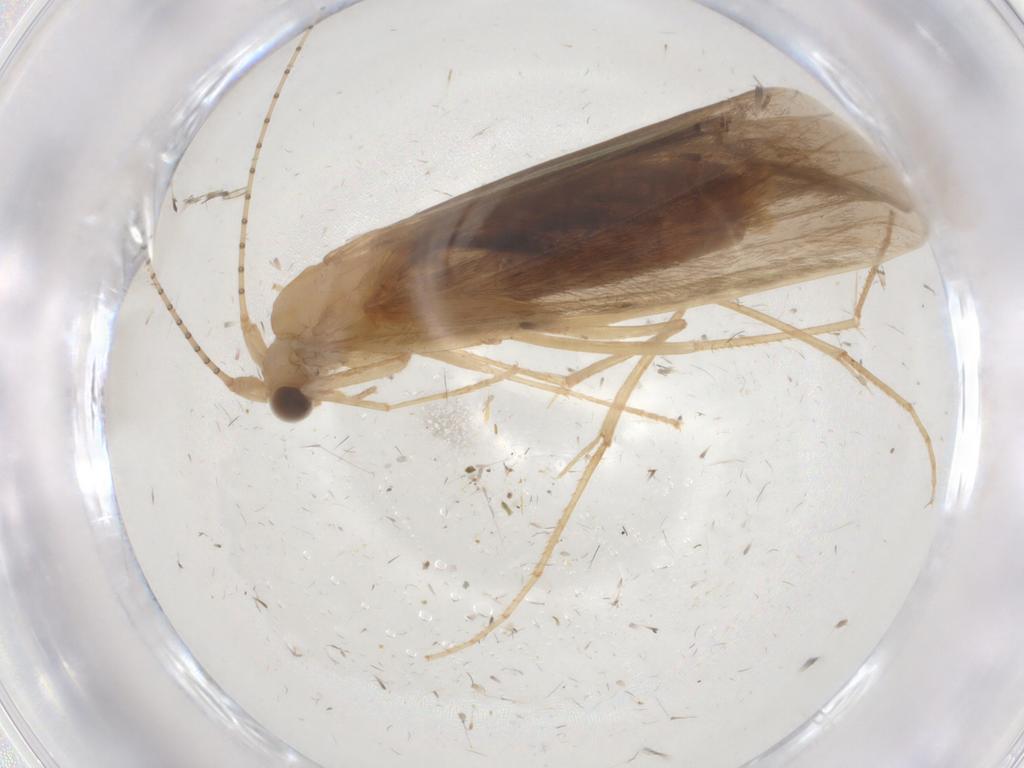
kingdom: Animalia
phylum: Arthropoda
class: Insecta
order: Trichoptera
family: Leptoceridae
